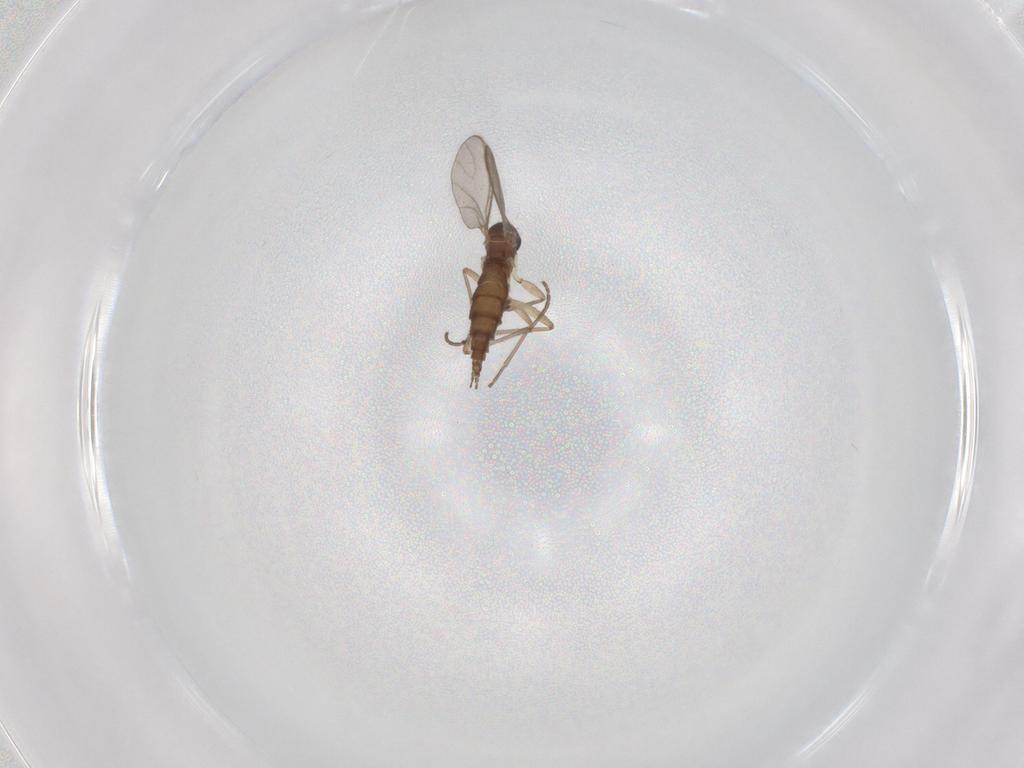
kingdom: Animalia
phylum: Arthropoda
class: Insecta
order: Diptera
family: Sciaridae
